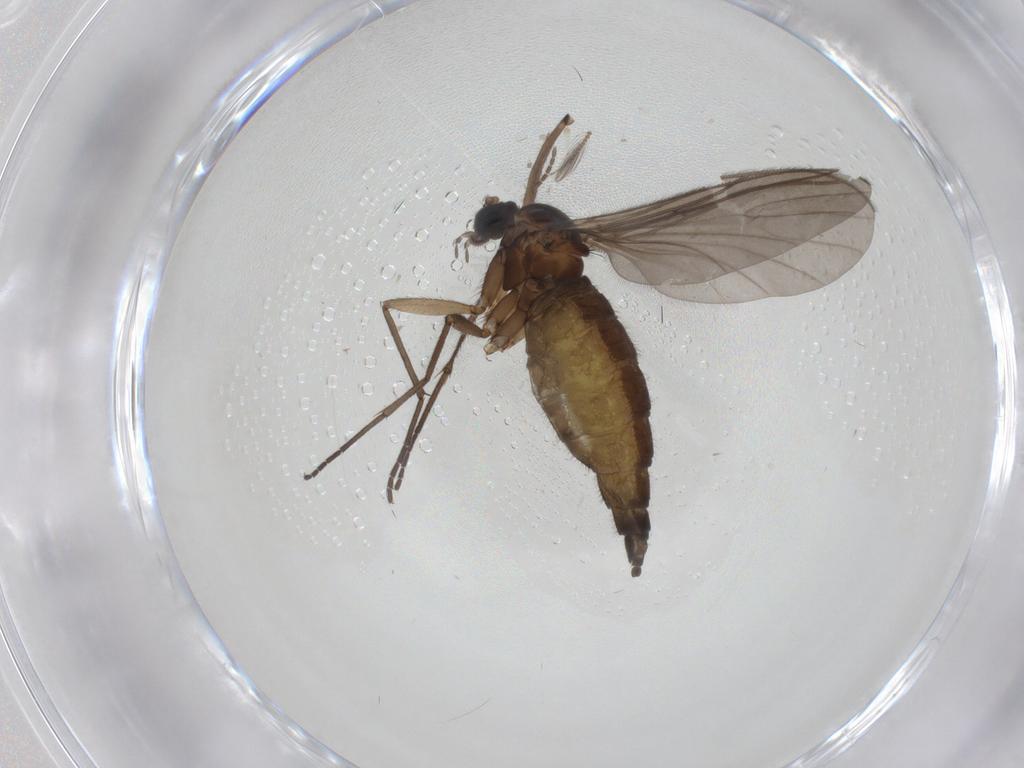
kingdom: Animalia
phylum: Arthropoda
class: Insecta
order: Diptera
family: Sciaridae
